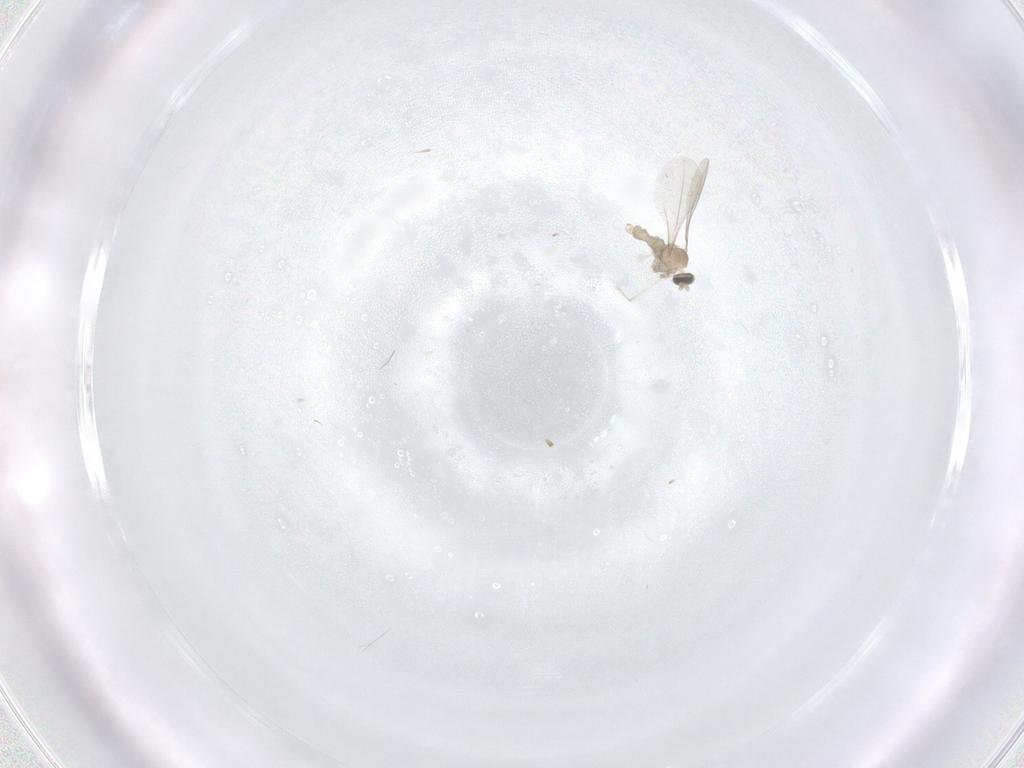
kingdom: Animalia
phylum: Arthropoda
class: Insecta
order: Diptera
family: Cecidomyiidae
